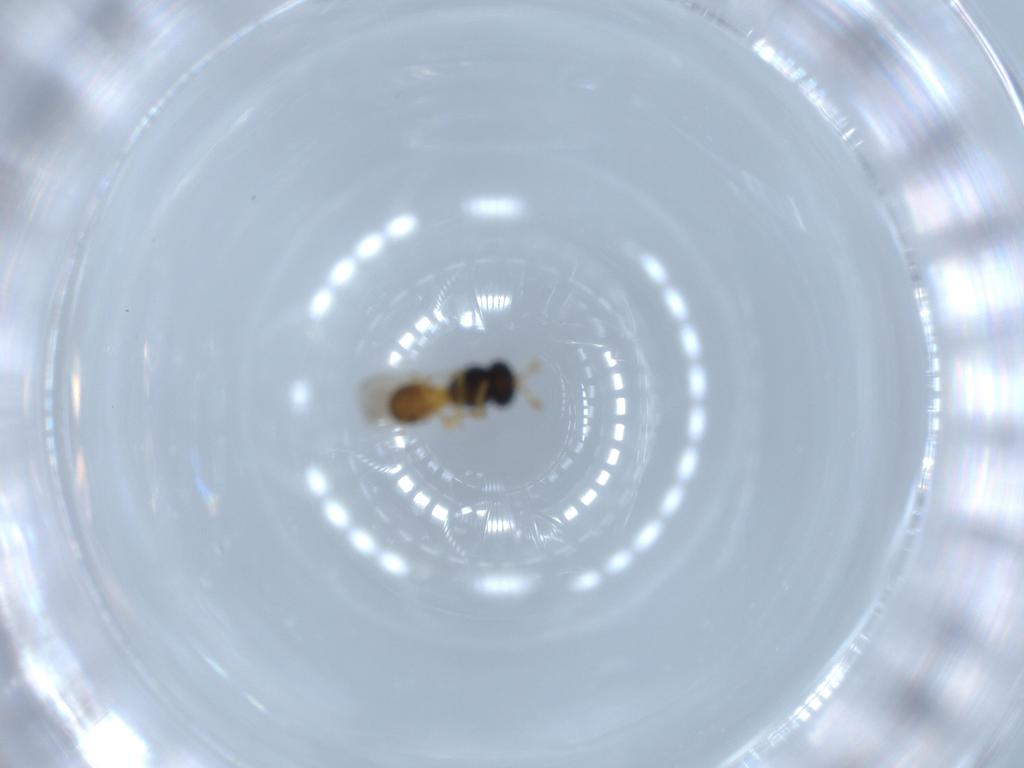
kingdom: Animalia
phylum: Arthropoda
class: Insecta
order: Hymenoptera
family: Scelionidae
